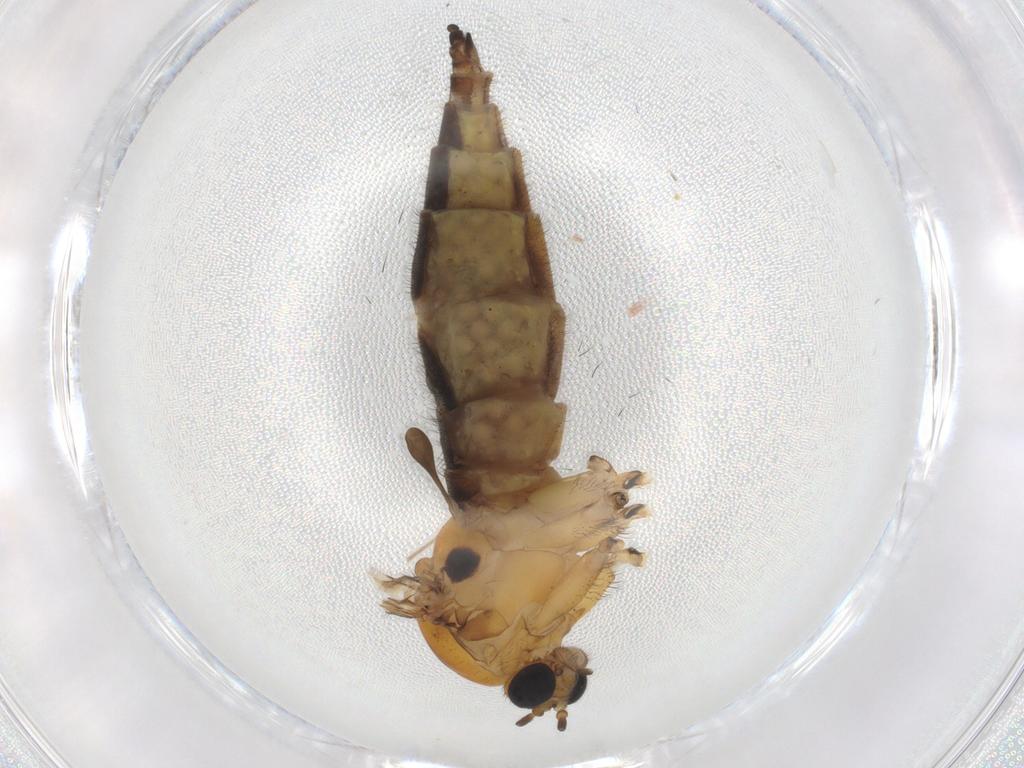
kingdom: Animalia
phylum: Arthropoda
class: Insecta
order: Diptera
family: Sciaridae
